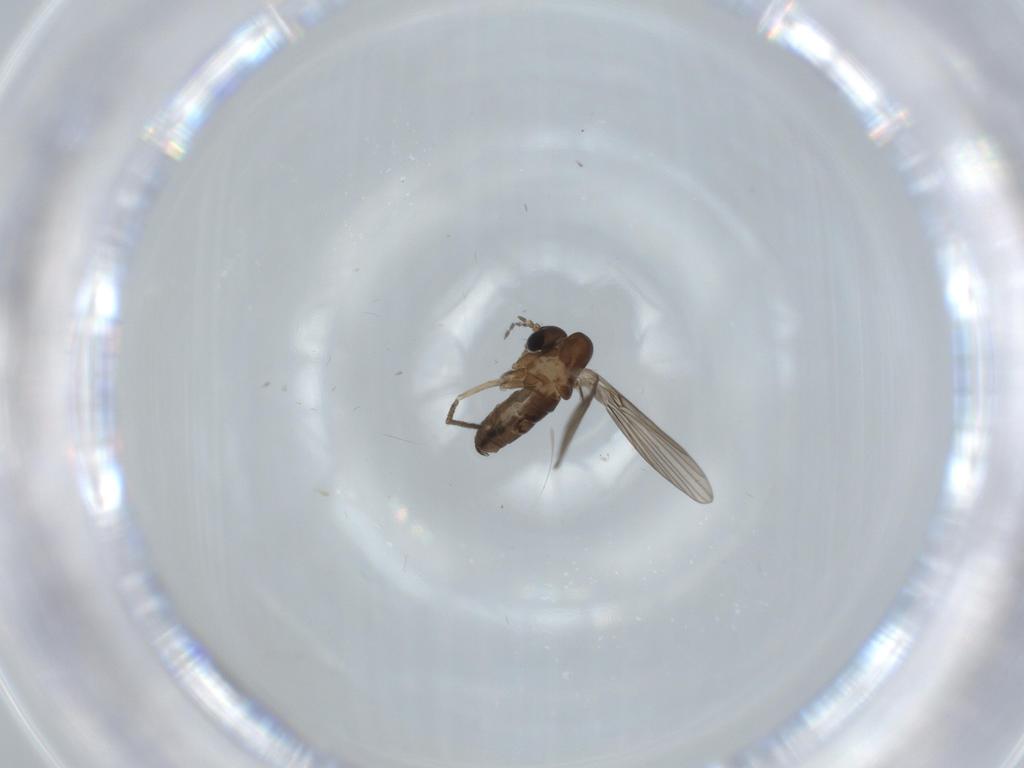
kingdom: Animalia
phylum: Arthropoda
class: Insecta
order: Diptera
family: Psychodidae
